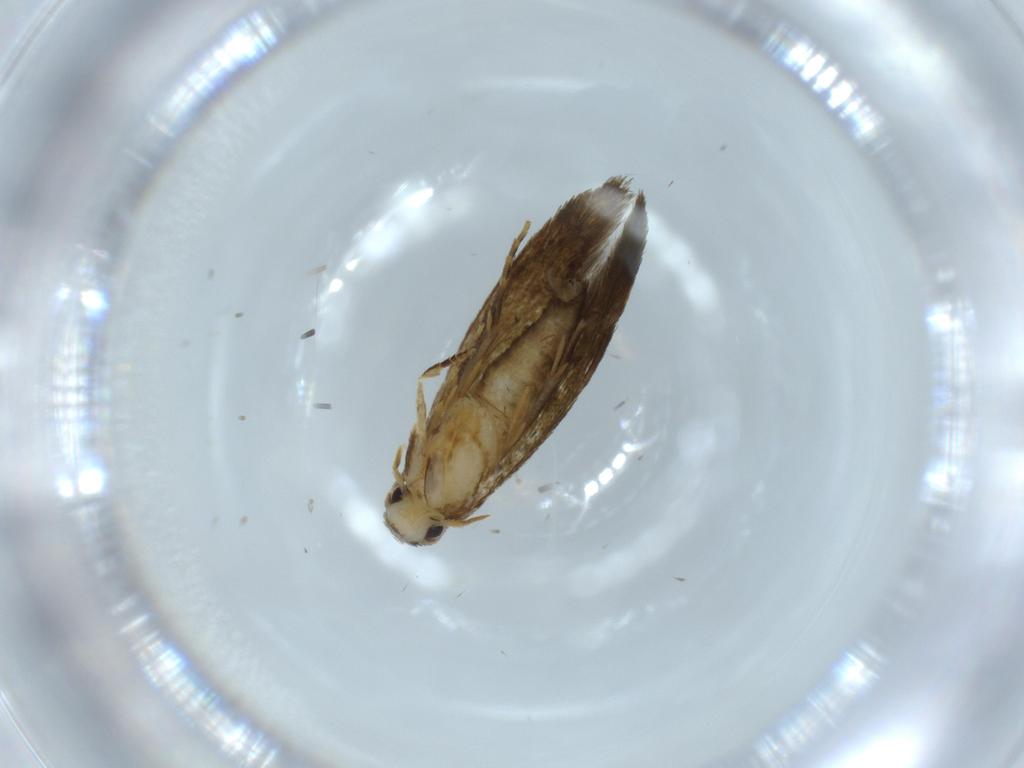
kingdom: Animalia
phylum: Arthropoda
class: Insecta
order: Lepidoptera
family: Tineidae
